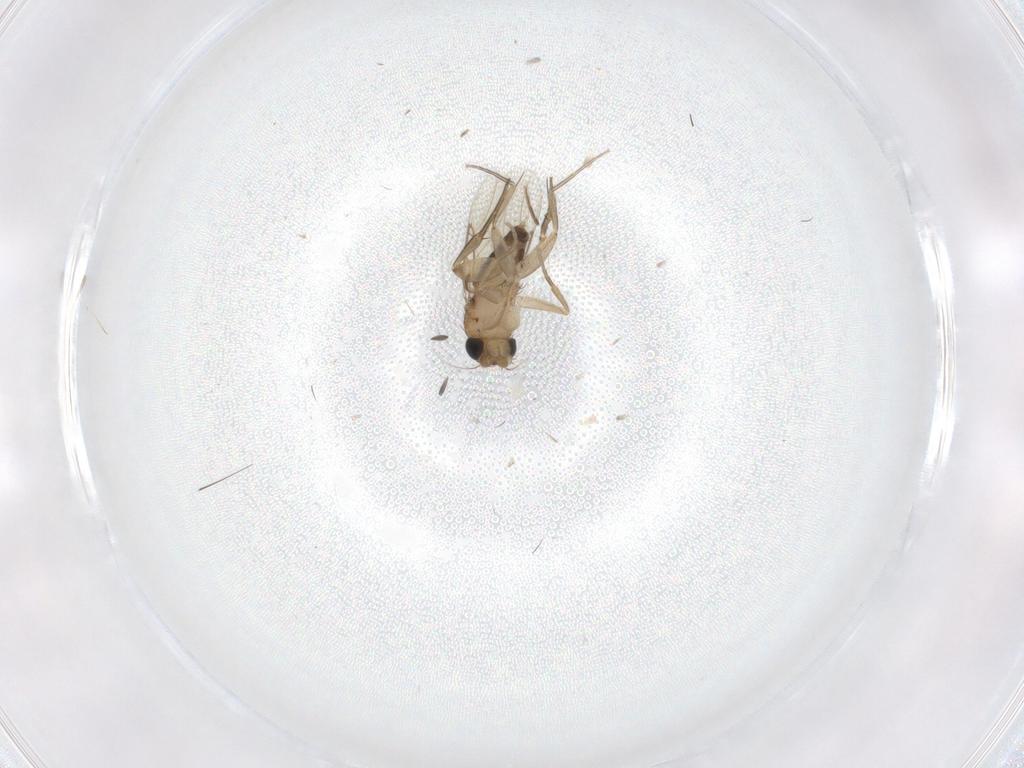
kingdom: Animalia
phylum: Arthropoda
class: Insecta
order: Diptera
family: Phoridae
